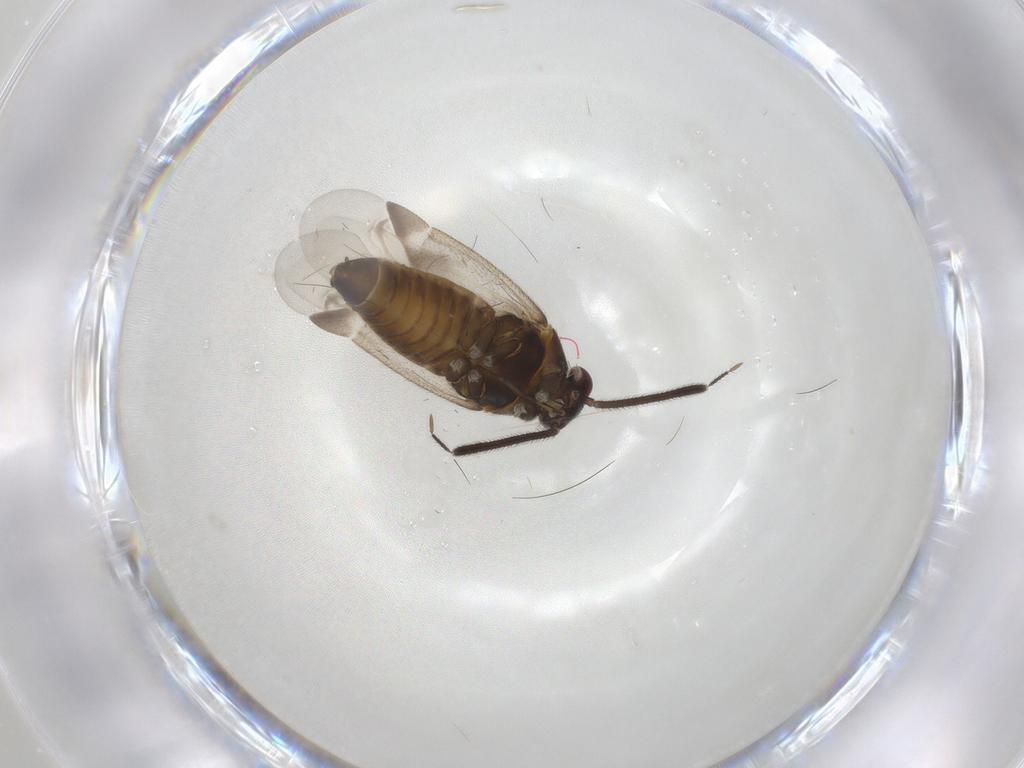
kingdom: Animalia
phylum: Arthropoda
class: Insecta
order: Hemiptera
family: Miridae
